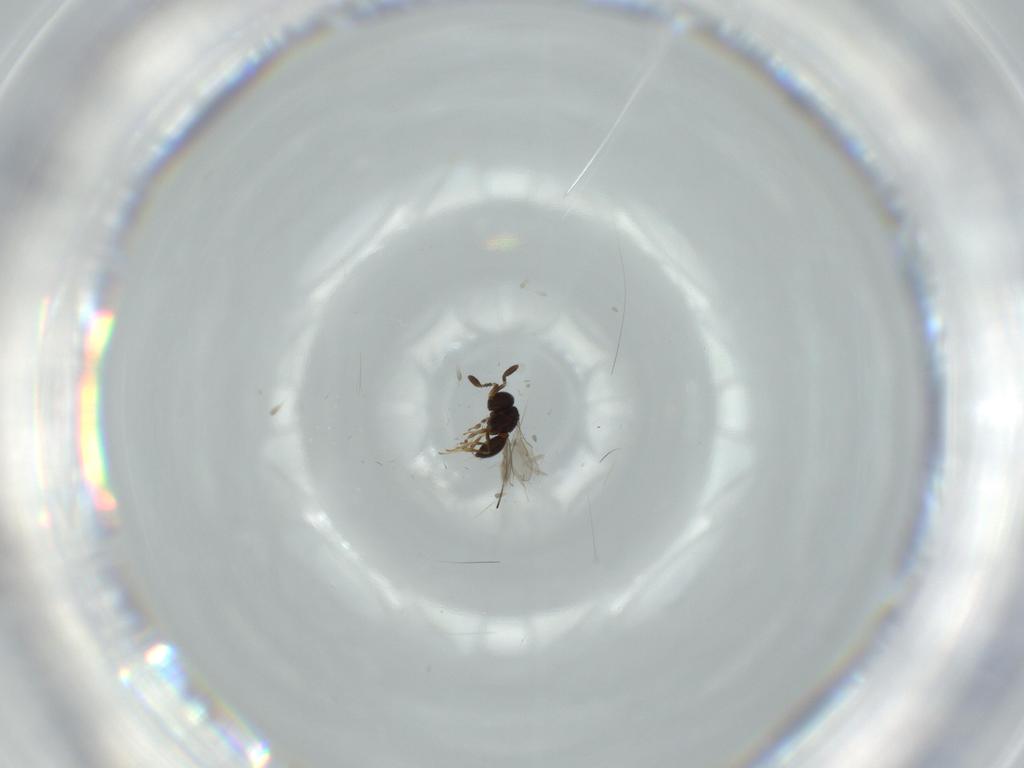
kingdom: Animalia
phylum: Arthropoda
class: Insecta
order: Hymenoptera
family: Scelionidae
